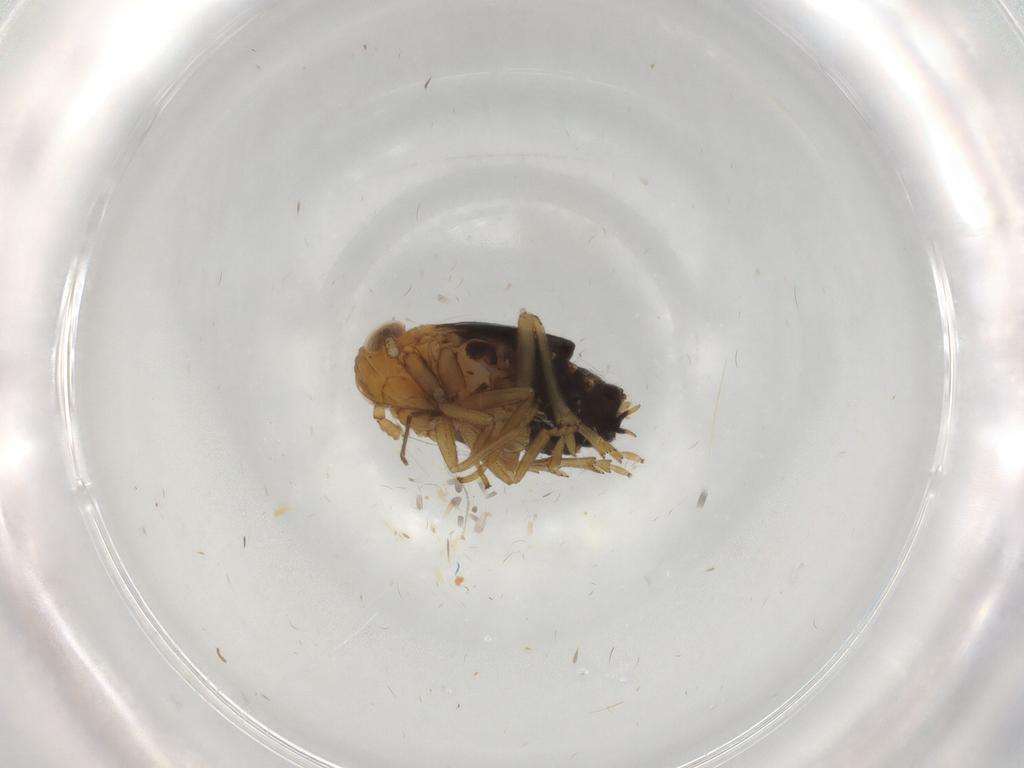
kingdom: Animalia
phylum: Arthropoda
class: Insecta
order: Hemiptera
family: Delphacidae
